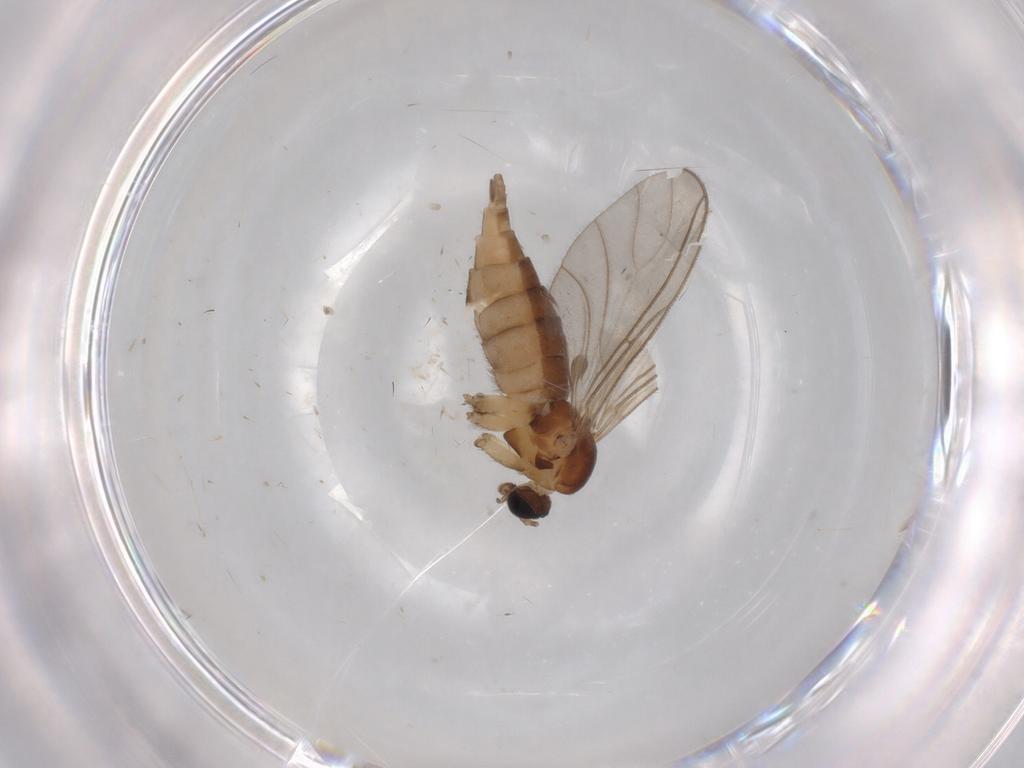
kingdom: Animalia
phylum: Arthropoda
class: Insecta
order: Diptera
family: Sciaridae
